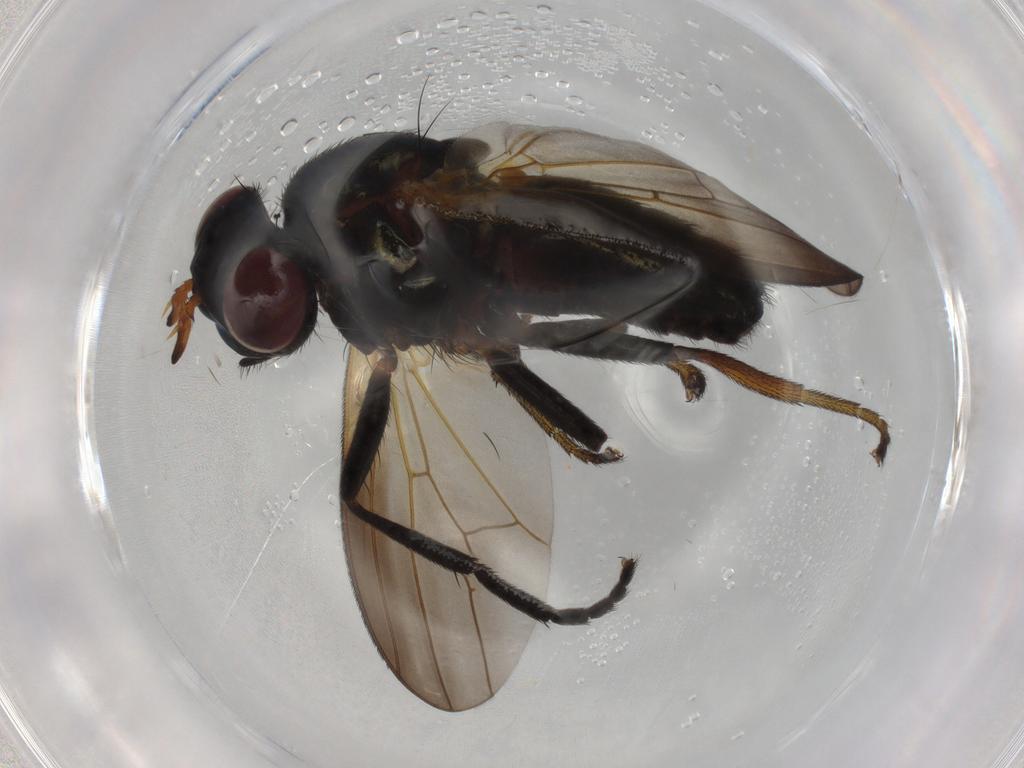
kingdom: Animalia
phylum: Arthropoda
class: Insecta
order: Diptera
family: Lauxaniidae
